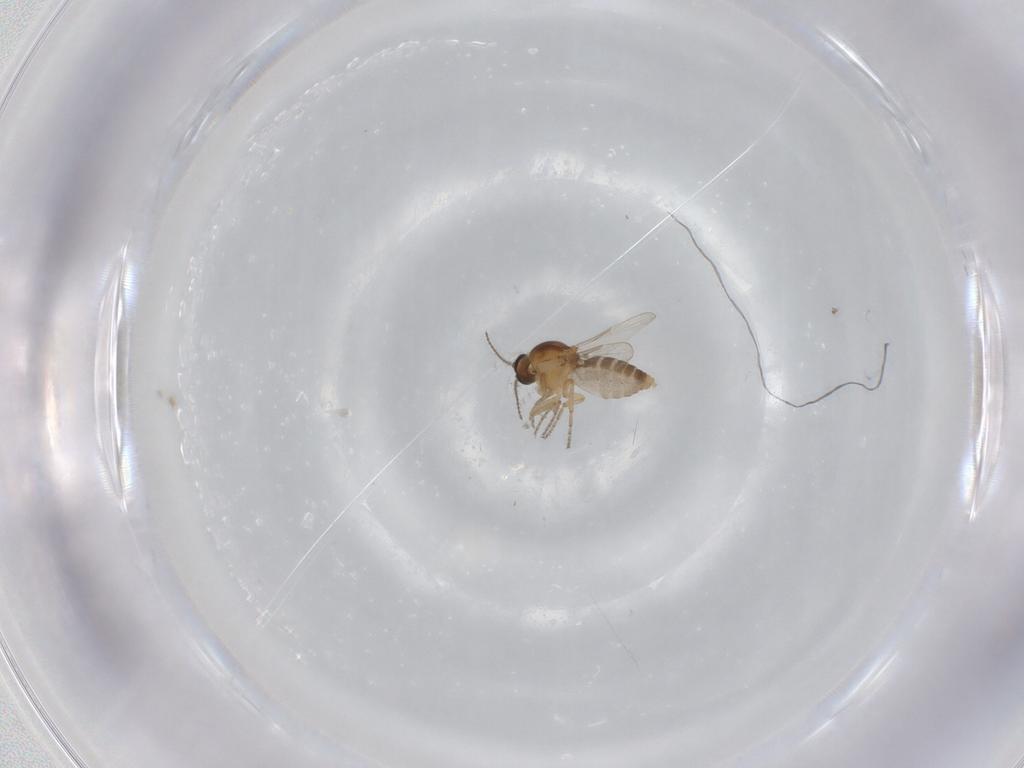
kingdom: Animalia
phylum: Arthropoda
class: Insecta
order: Diptera
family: Ceratopogonidae
